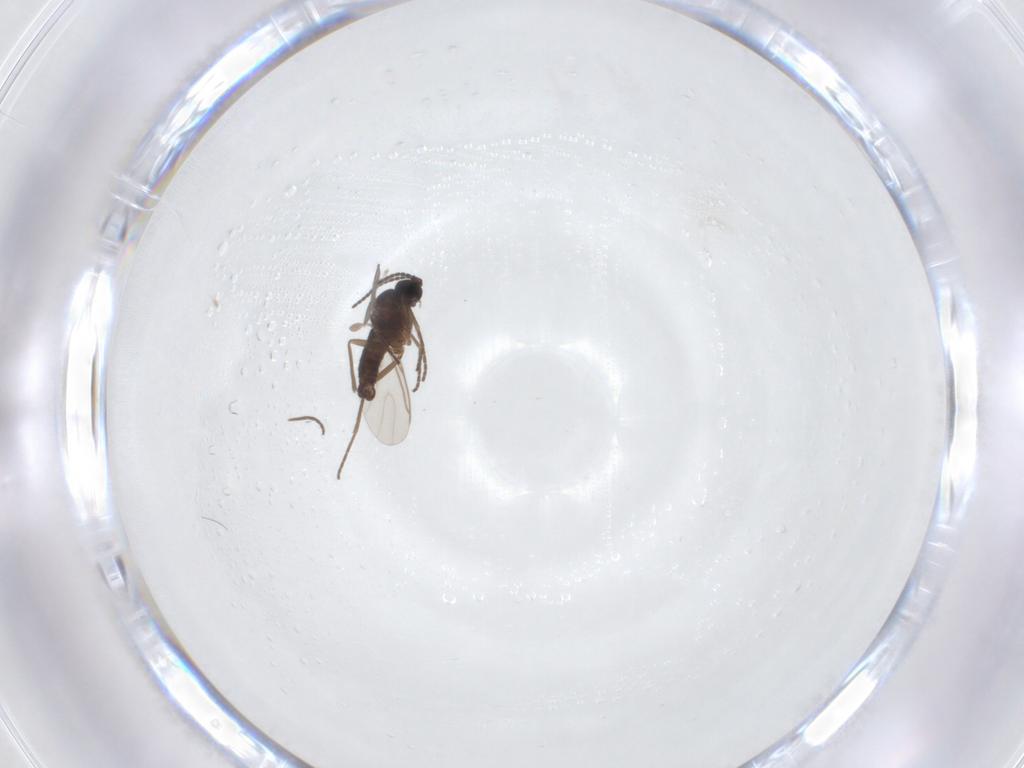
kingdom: Animalia
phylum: Arthropoda
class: Insecta
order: Diptera
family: Sciaridae
